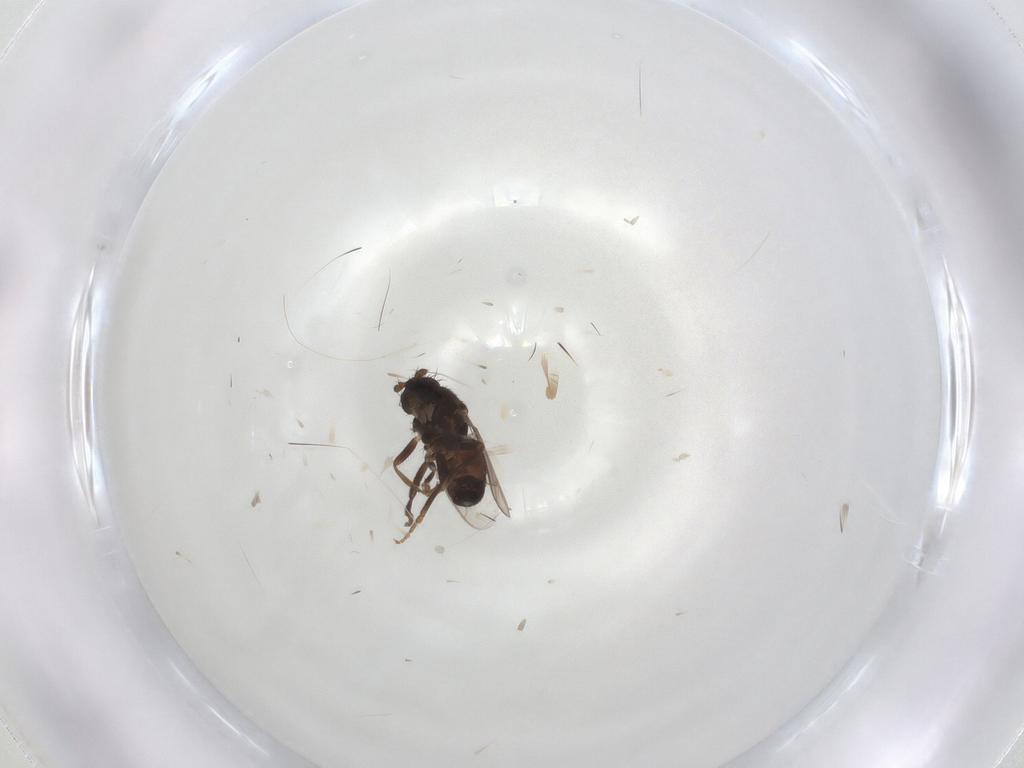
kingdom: Animalia
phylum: Arthropoda
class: Insecta
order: Diptera
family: Sphaeroceridae
